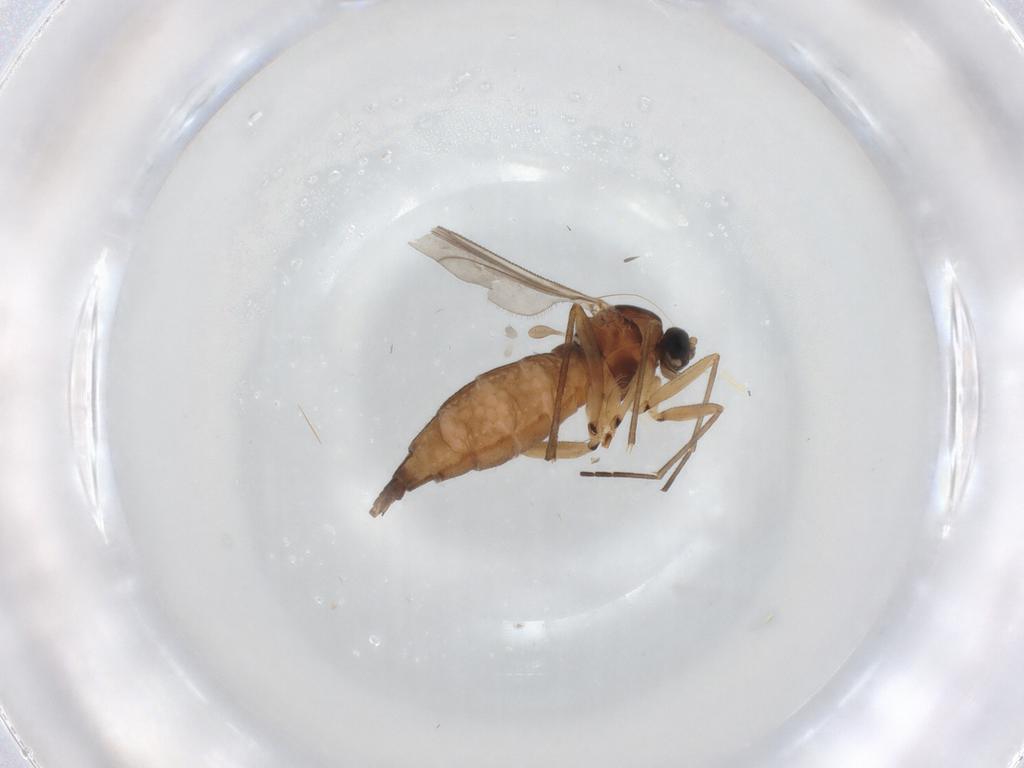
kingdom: Animalia
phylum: Arthropoda
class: Insecta
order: Diptera
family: Sciaridae
